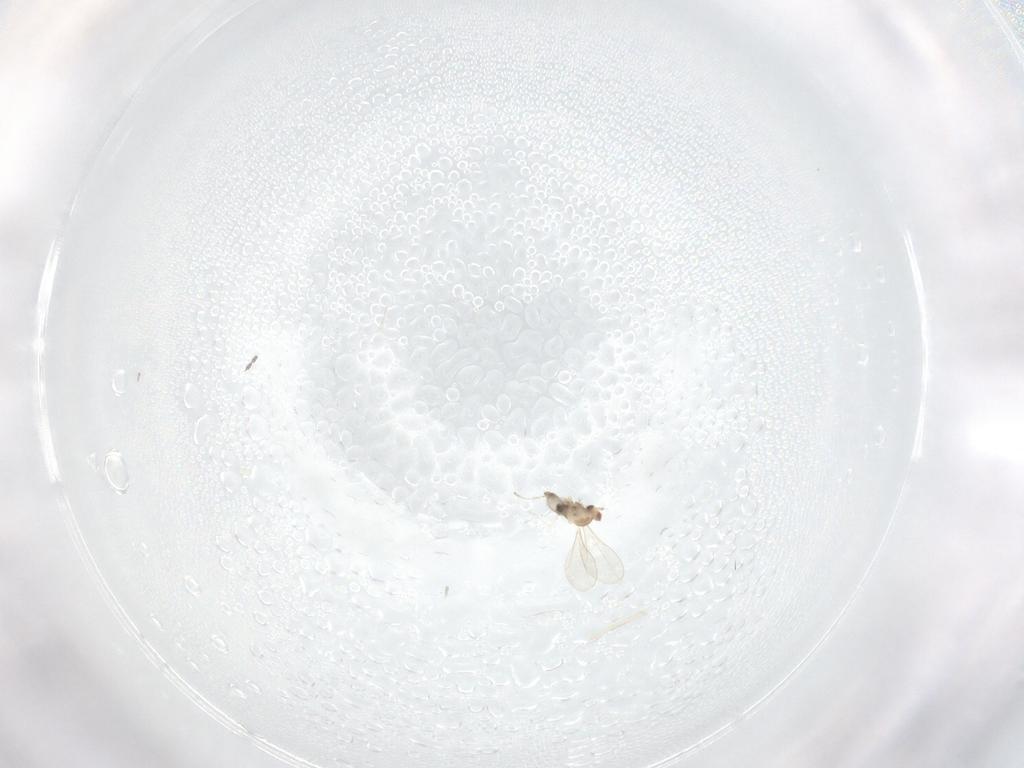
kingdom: Animalia
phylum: Arthropoda
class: Insecta
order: Diptera
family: Cecidomyiidae
